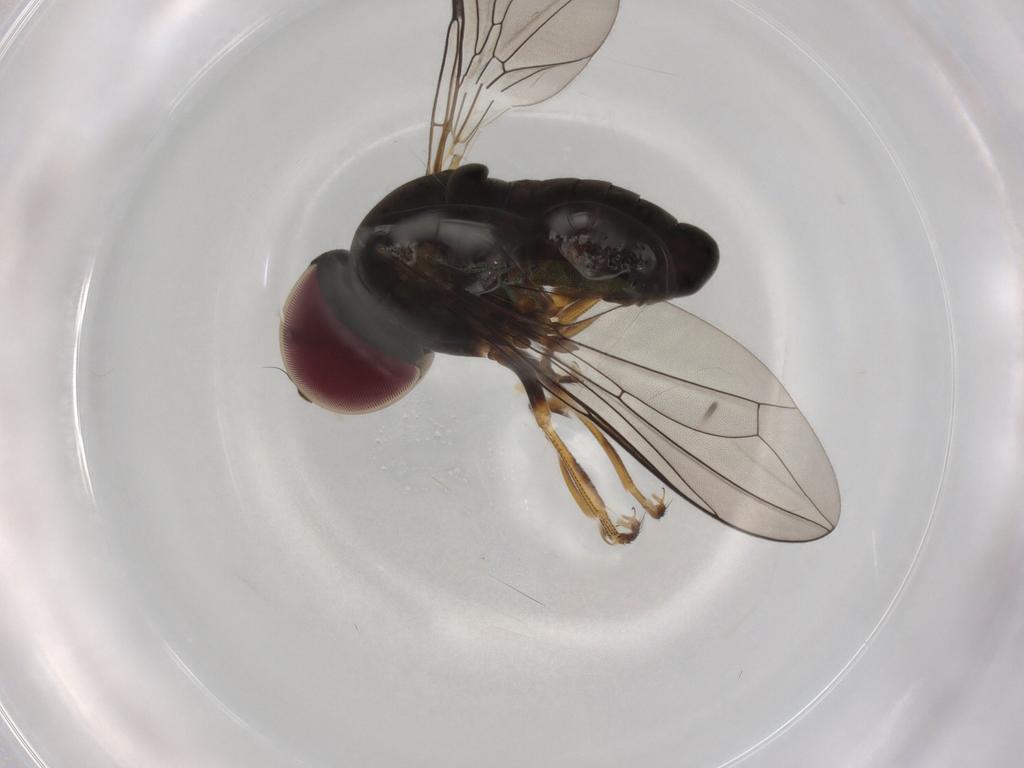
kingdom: Animalia
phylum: Arthropoda
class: Insecta
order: Diptera
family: Pipunculidae
